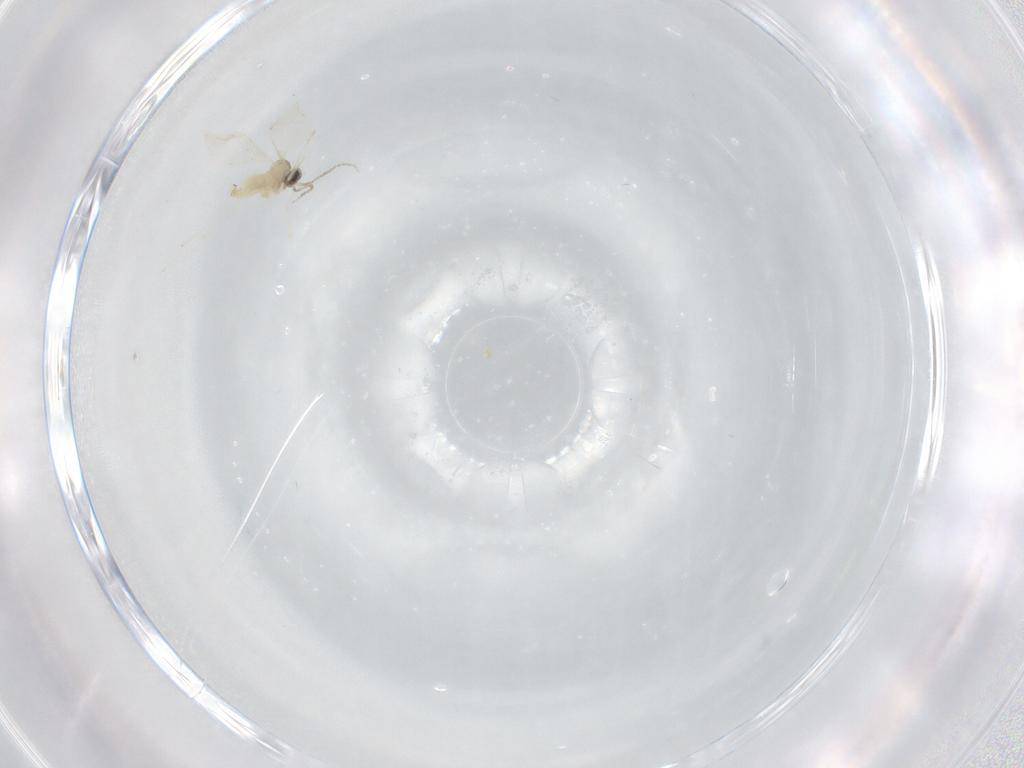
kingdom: Animalia
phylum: Arthropoda
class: Insecta
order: Diptera
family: Cecidomyiidae
